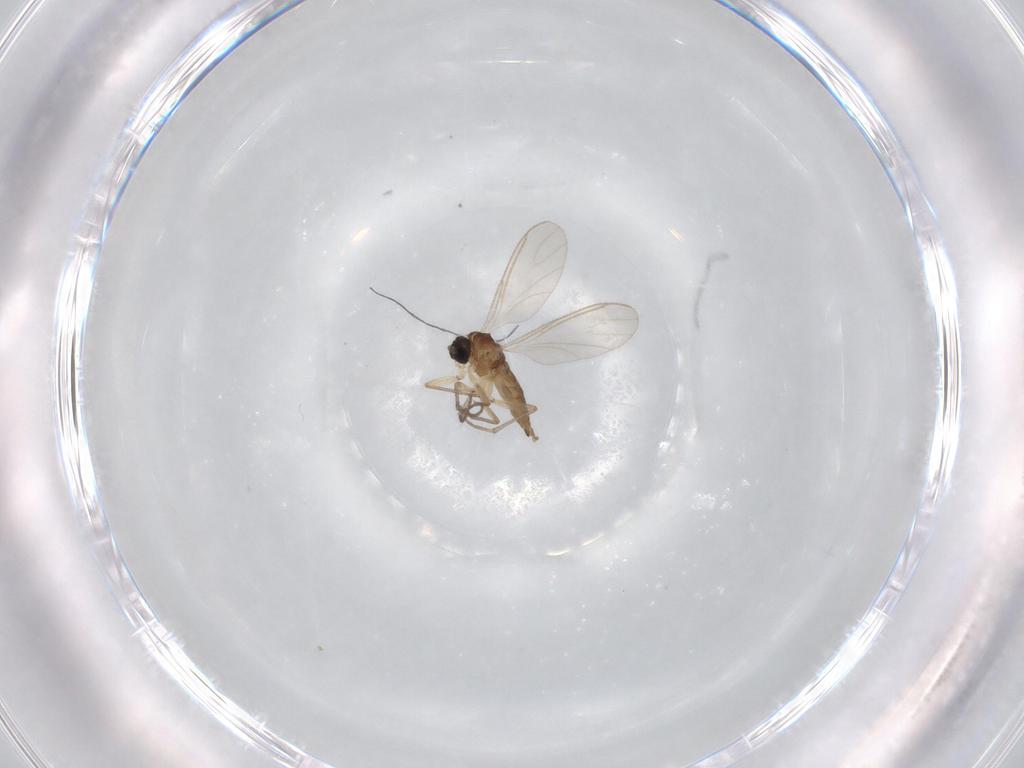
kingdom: Animalia
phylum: Arthropoda
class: Insecta
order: Diptera
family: Sciaridae
